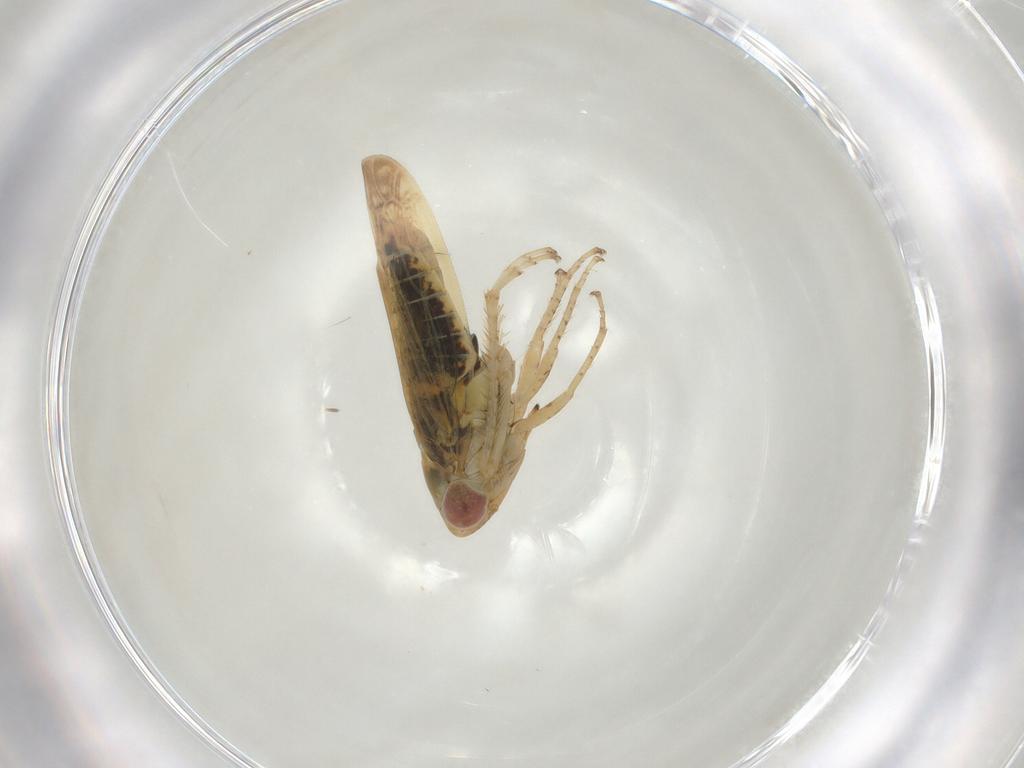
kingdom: Animalia
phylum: Arthropoda
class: Insecta
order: Hemiptera
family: Cicadellidae
